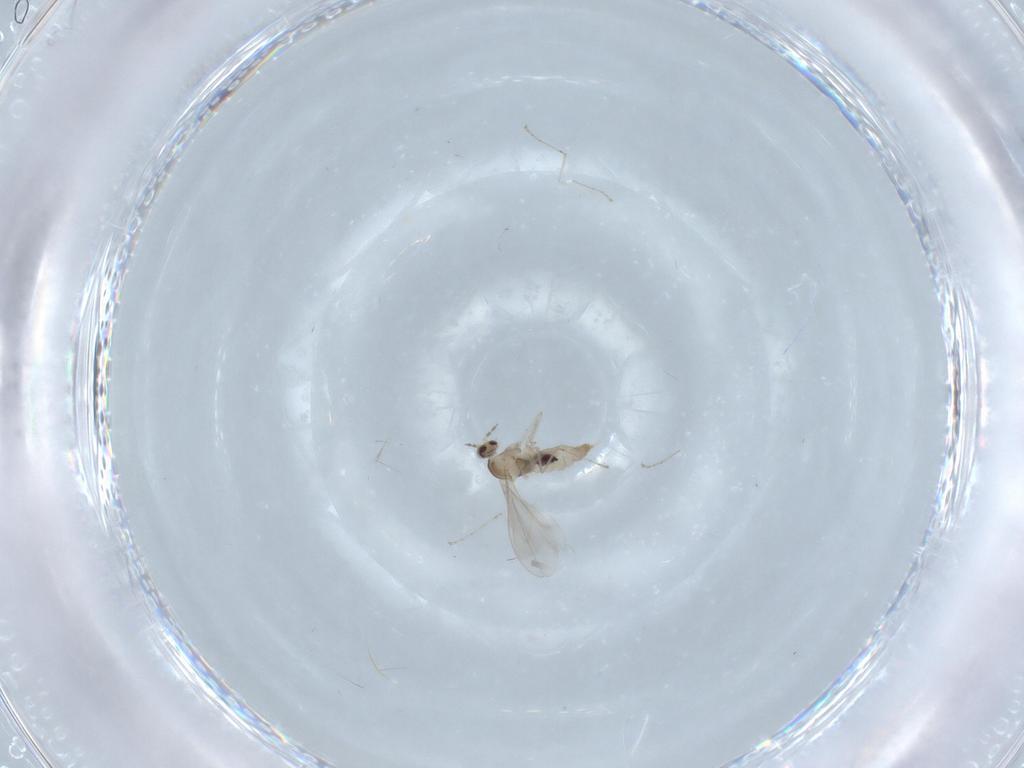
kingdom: Animalia
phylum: Arthropoda
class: Insecta
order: Diptera
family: Cecidomyiidae
